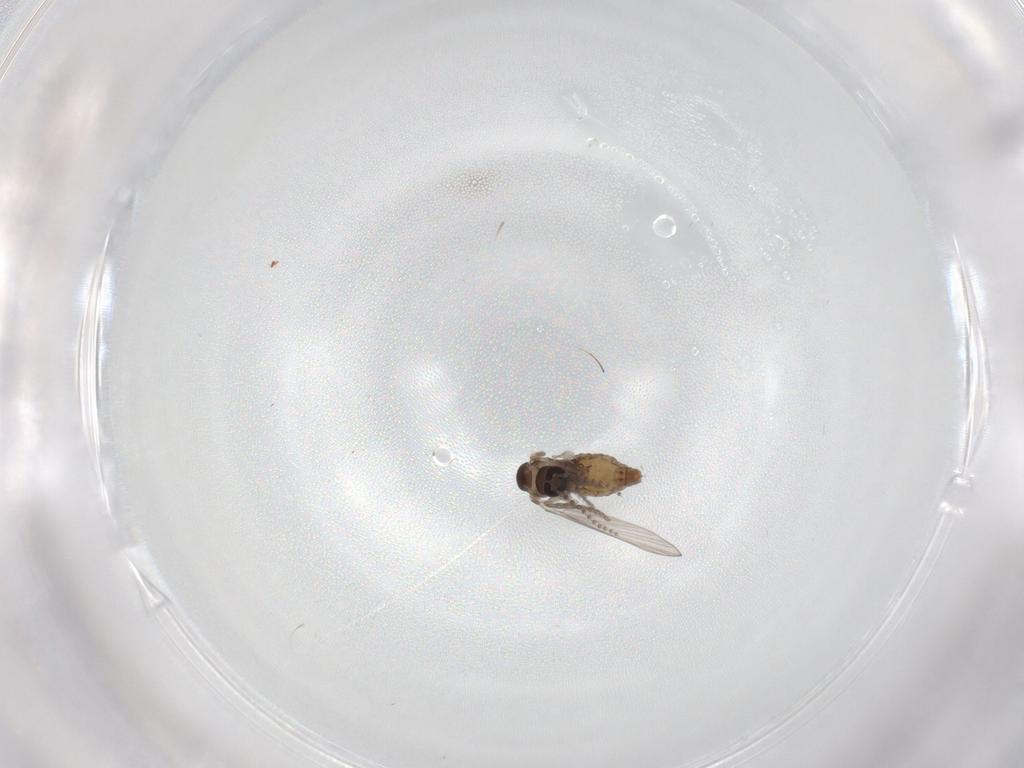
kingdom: Animalia
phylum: Arthropoda
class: Insecta
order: Diptera
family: Psychodidae
